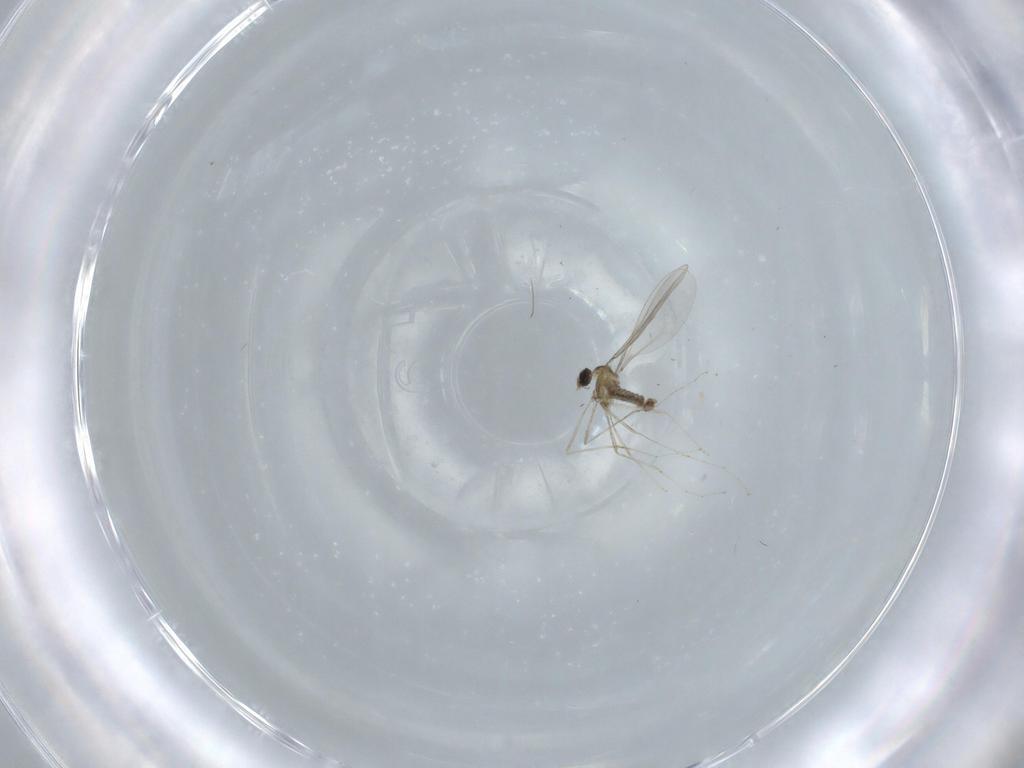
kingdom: Animalia
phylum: Arthropoda
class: Insecta
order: Diptera
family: Cecidomyiidae
